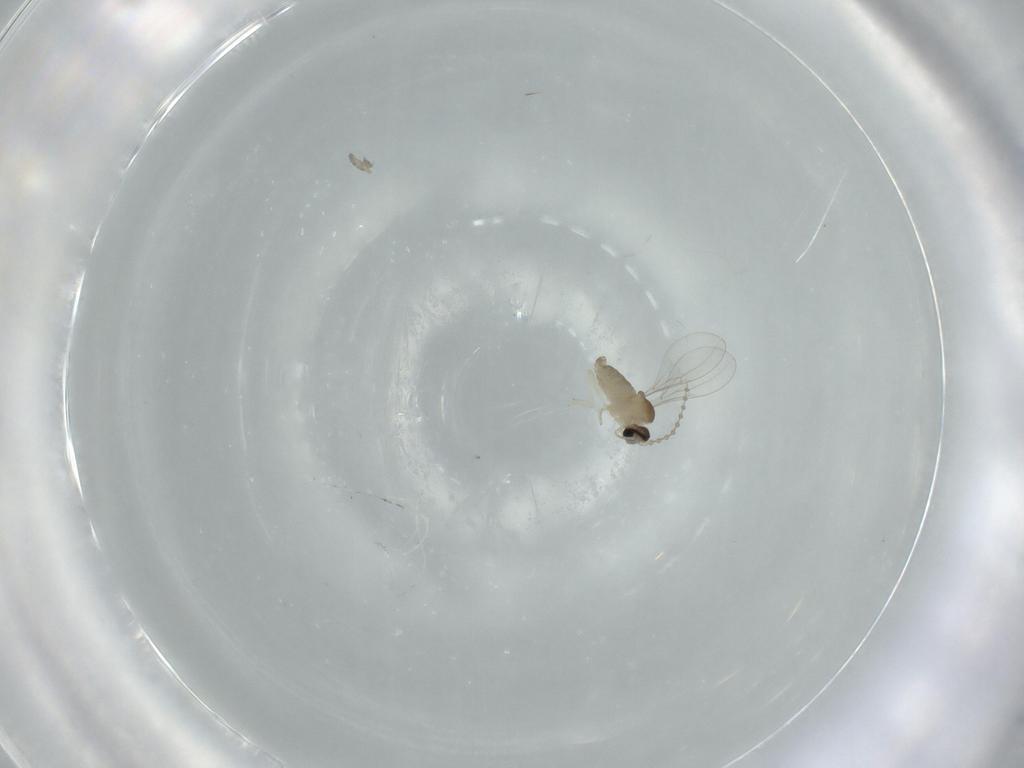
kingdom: Animalia
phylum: Arthropoda
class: Insecta
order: Diptera
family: Cecidomyiidae
